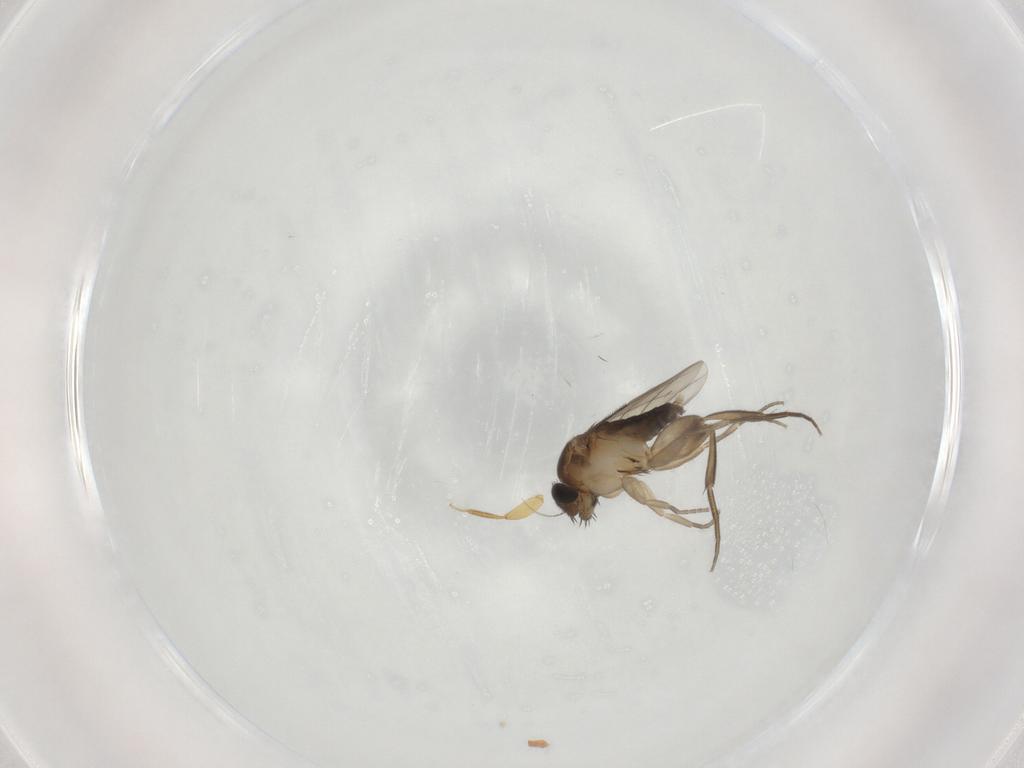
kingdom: Animalia
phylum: Arthropoda
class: Insecta
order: Diptera
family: Phoridae
